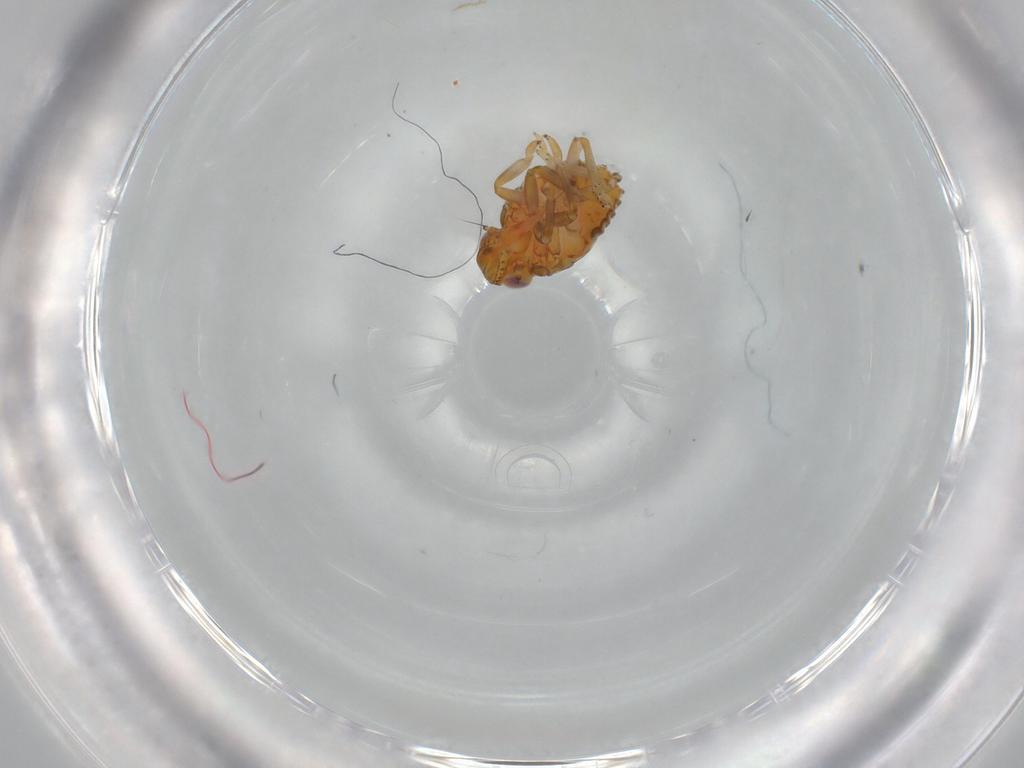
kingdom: Animalia
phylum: Arthropoda
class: Insecta
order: Hemiptera
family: Issidae
